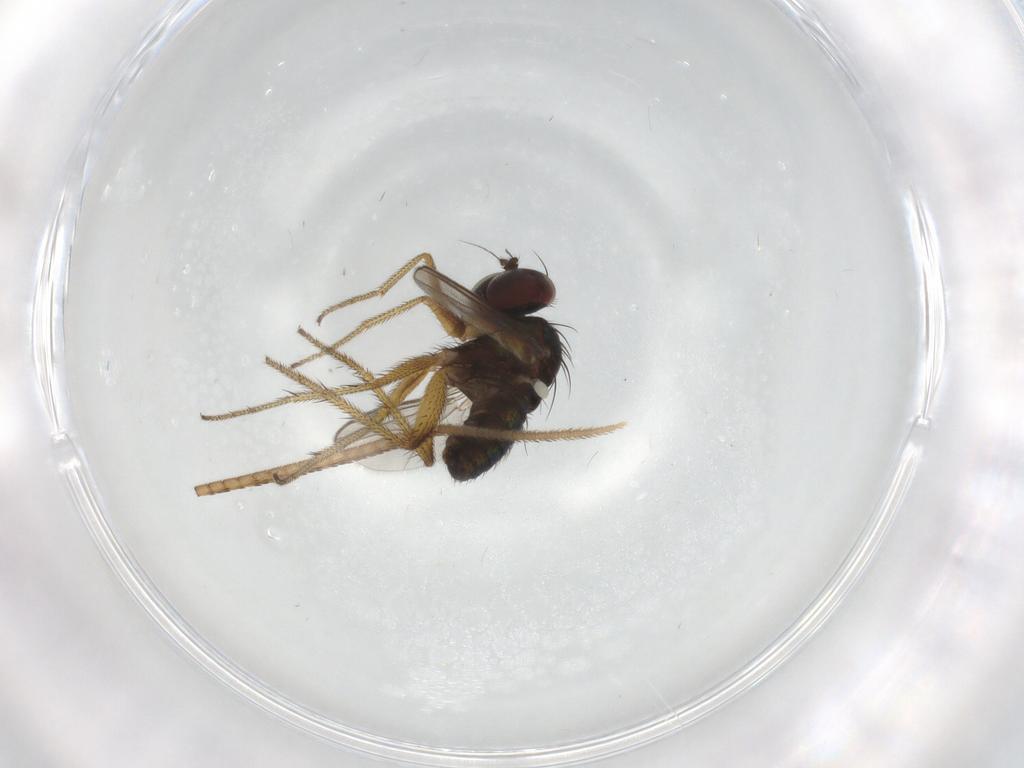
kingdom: Animalia
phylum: Arthropoda
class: Insecta
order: Diptera
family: Dolichopodidae
